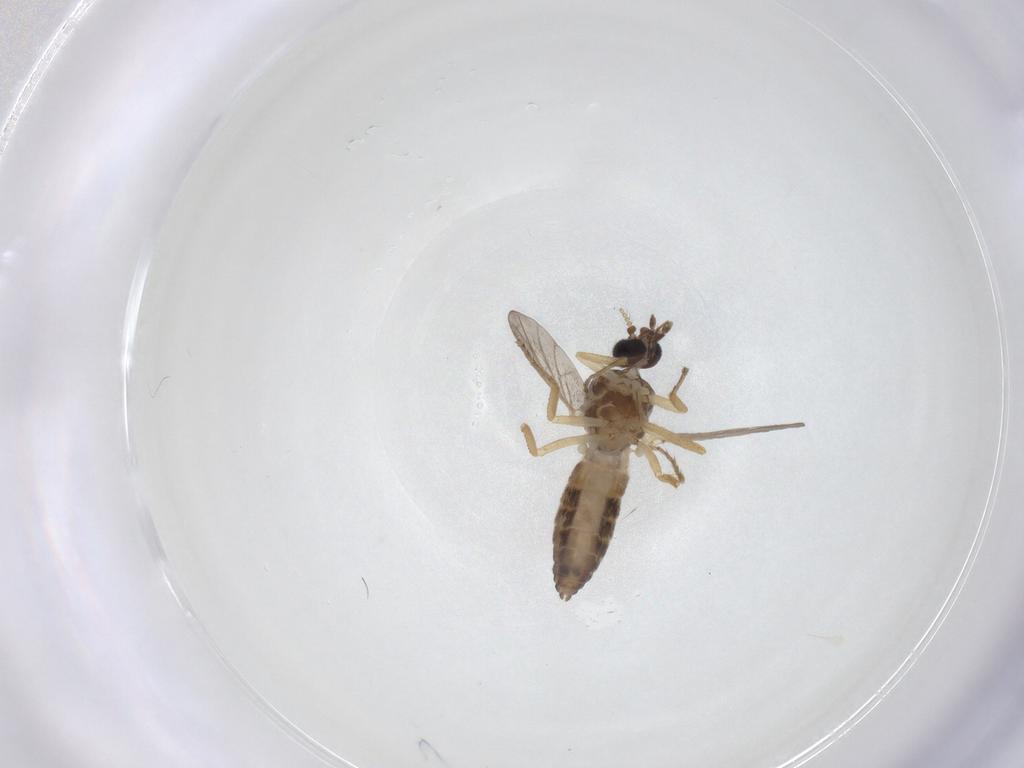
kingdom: Animalia
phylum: Arthropoda
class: Insecta
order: Diptera
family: Ceratopogonidae
